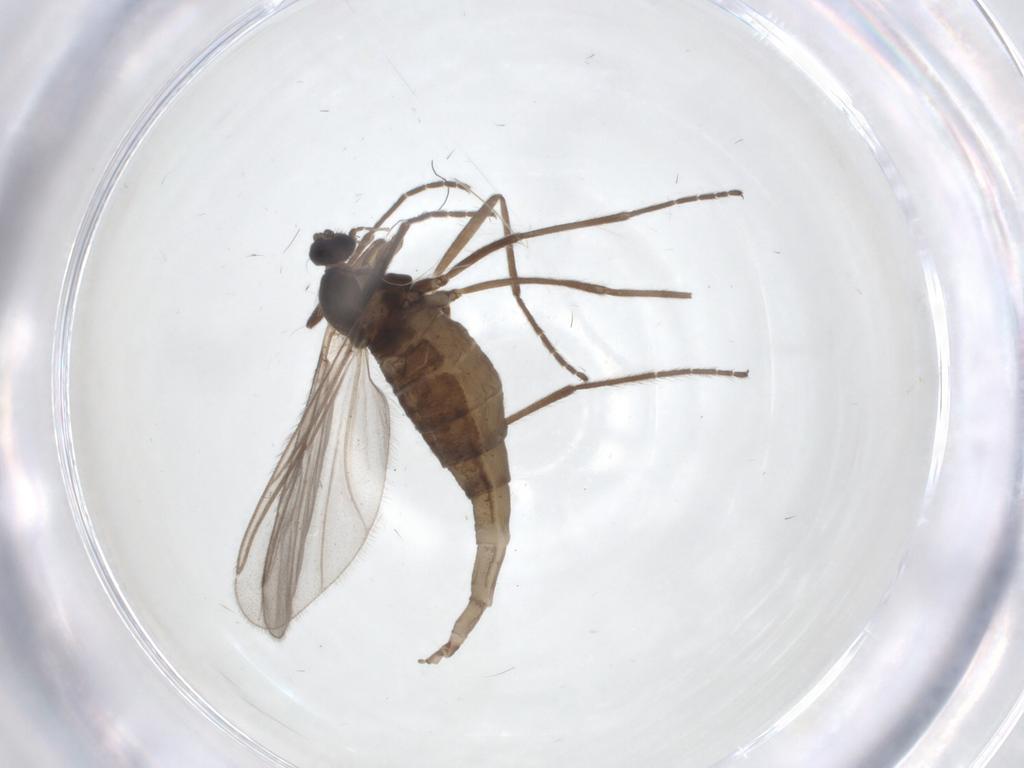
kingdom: Animalia
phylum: Arthropoda
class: Insecta
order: Diptera
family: Cecidomyiidae
